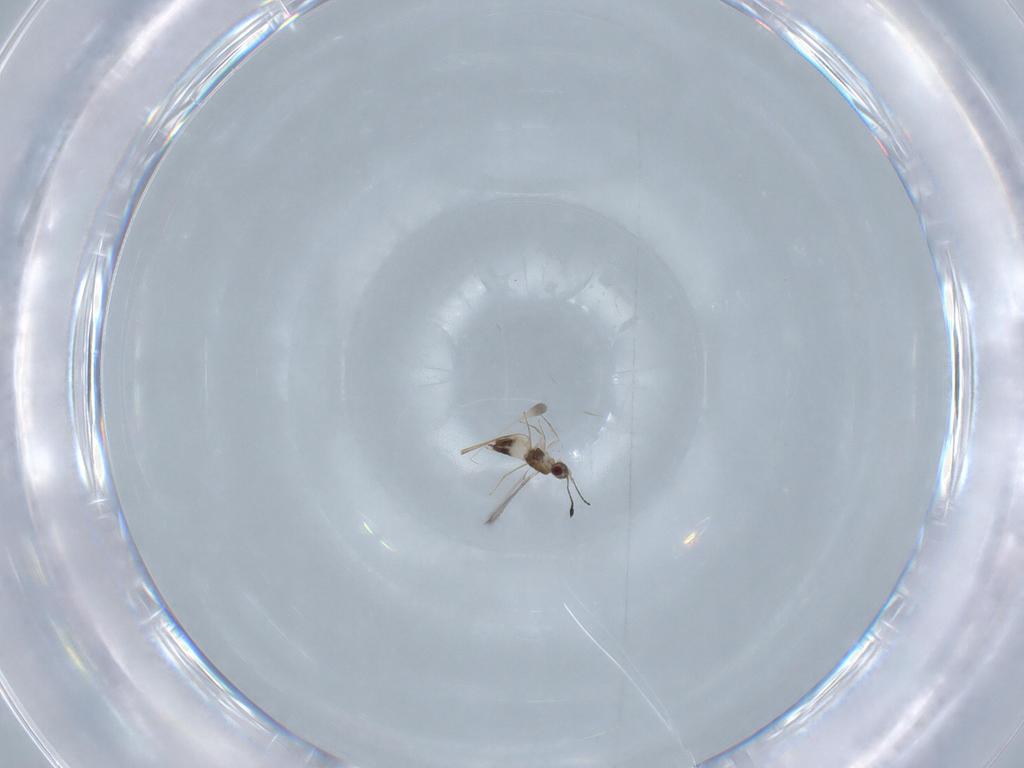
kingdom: Animalia
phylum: Arthropoda
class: Insecta
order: Hymenoptera
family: Mymaridae
